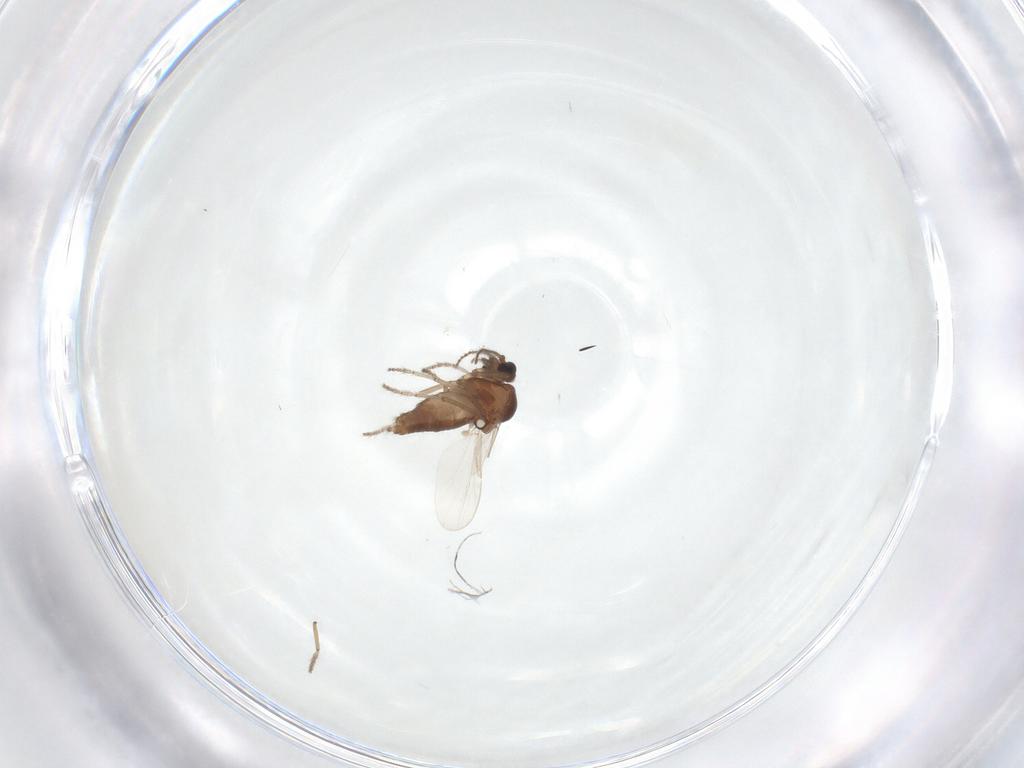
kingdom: Animalia
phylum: Arthropoda
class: Insecta
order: Diptera
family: Ceratopogonidae
